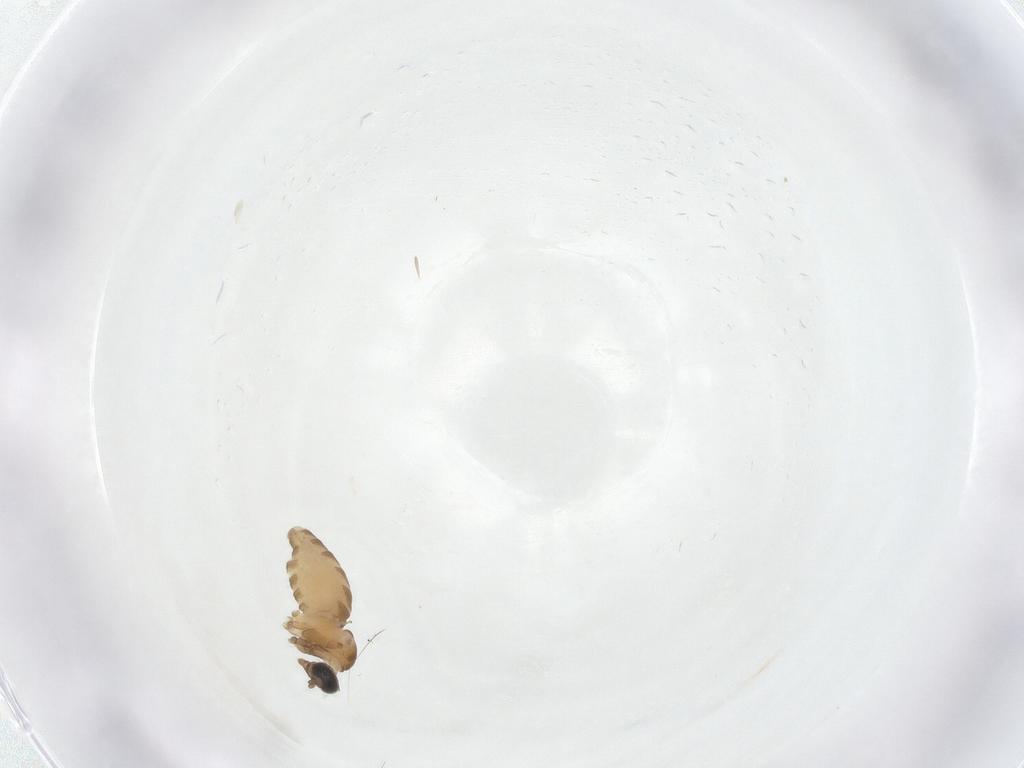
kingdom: Animalia
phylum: Arthropoda
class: Insecta
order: Diptera
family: Cecidomyiidae
